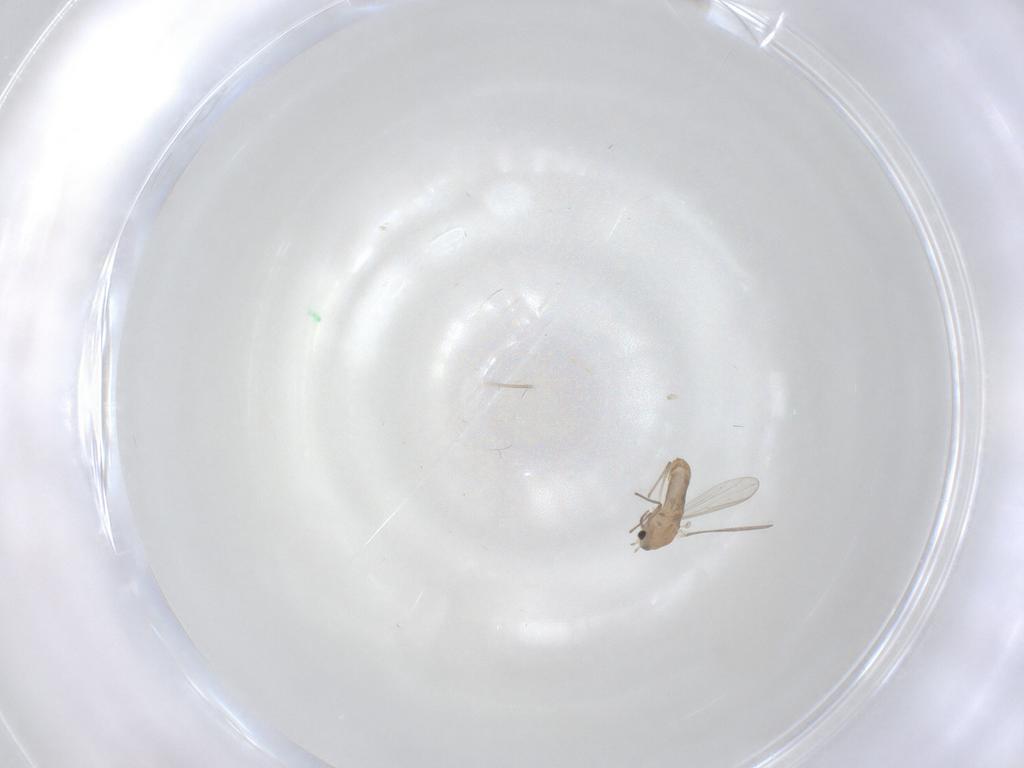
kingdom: Animalia
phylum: Arthropoda
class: Insecta
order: Diptera
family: Chironomidae
